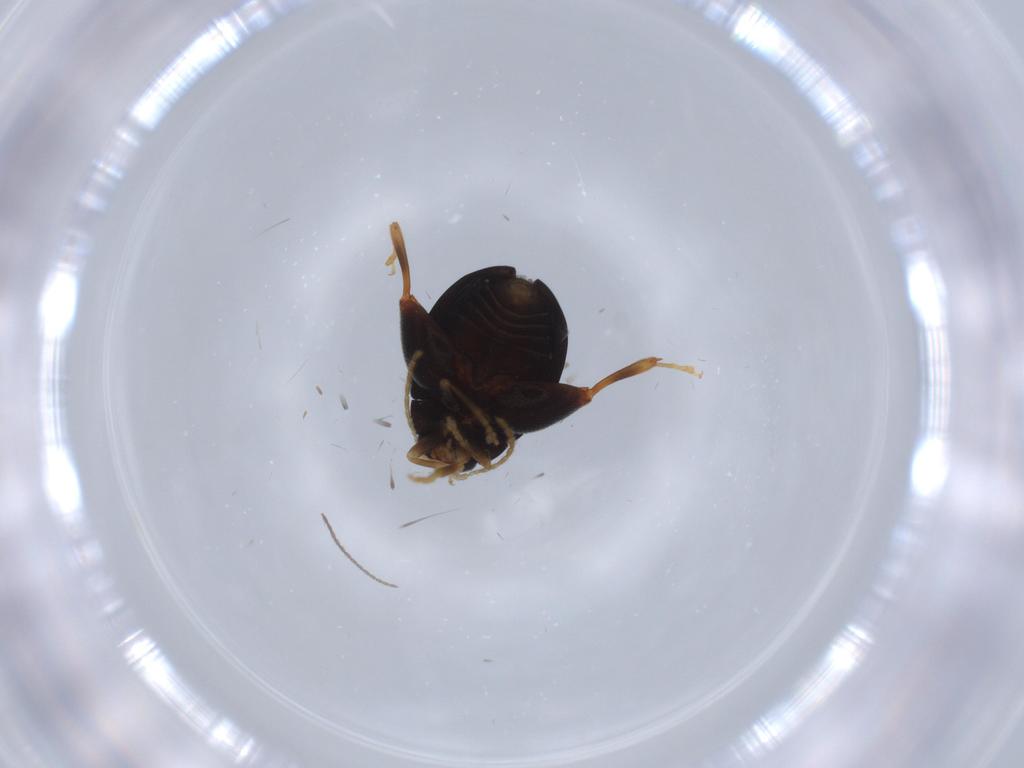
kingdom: Animalia
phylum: Arthropoda
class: Insecta
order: Coleoptera
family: Chrysomelidae
